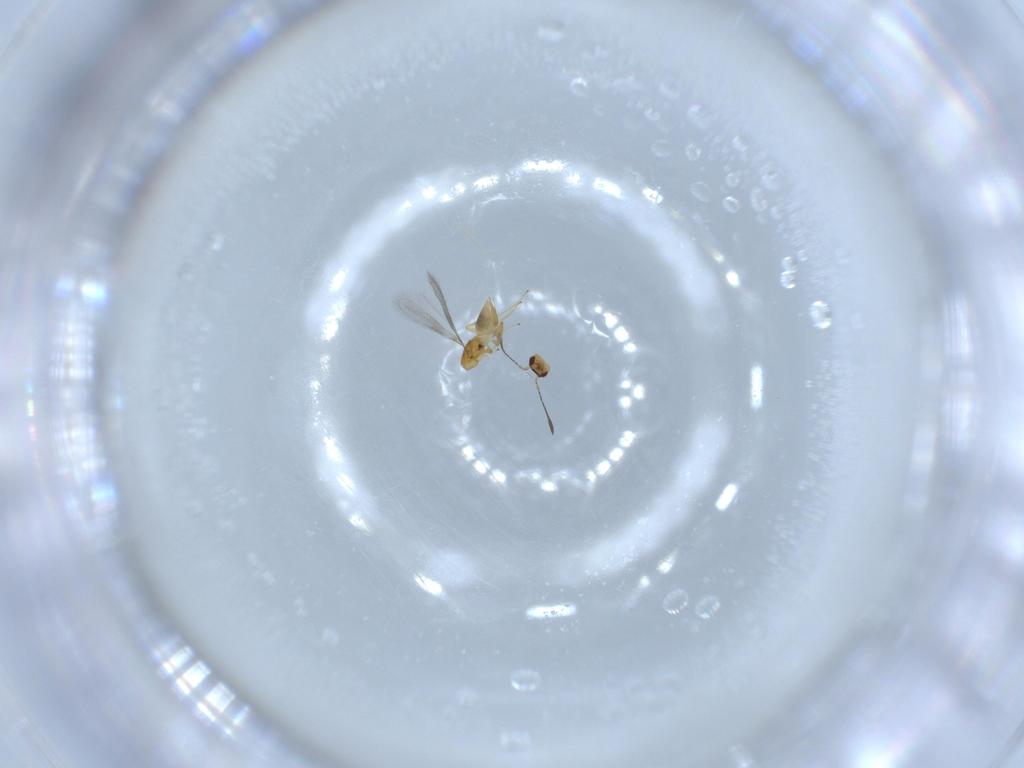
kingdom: Animalia
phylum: Arthropoda
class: Insecta
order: Hymenoptera
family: Mymaridae
